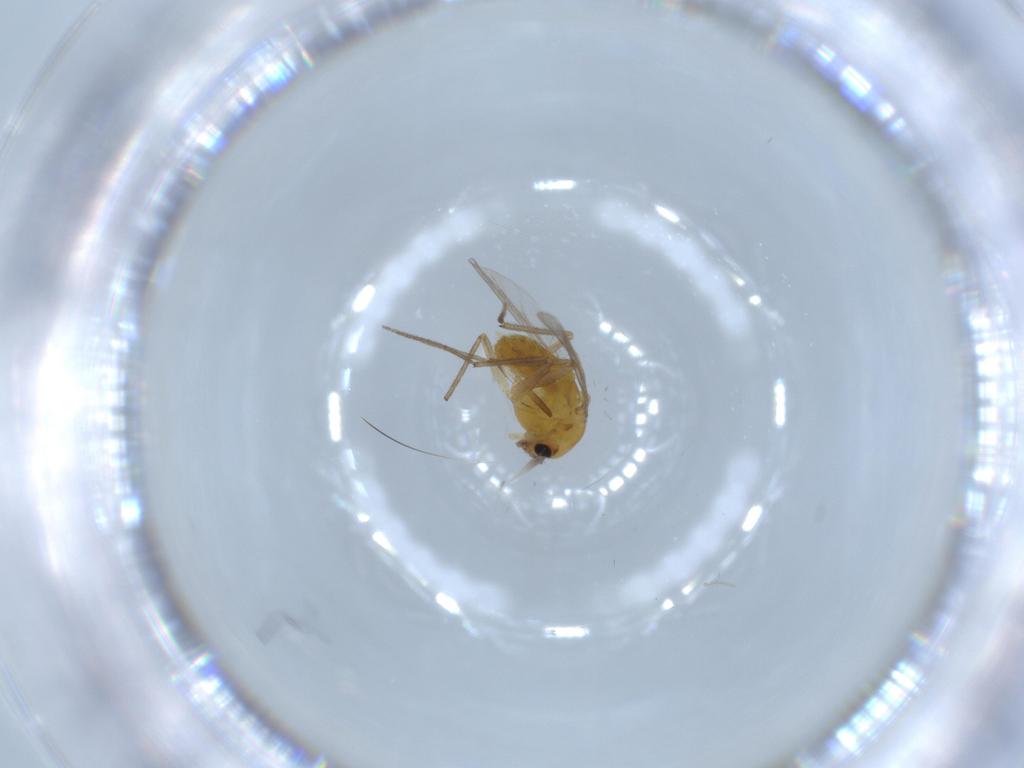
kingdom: Animalia
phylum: Arthropoda
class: Insecta
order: Diptera
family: Chironomidae
